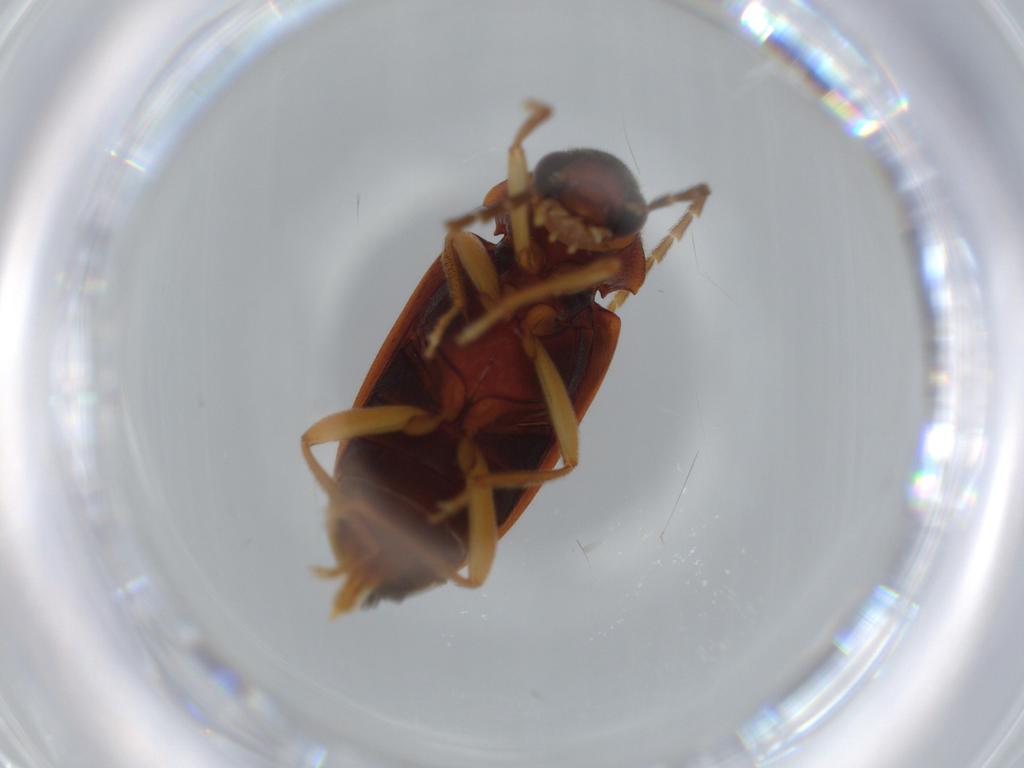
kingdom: Animalia
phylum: Arthropoda
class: Insecta
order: Coleoptera
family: Ptilodactylidae
